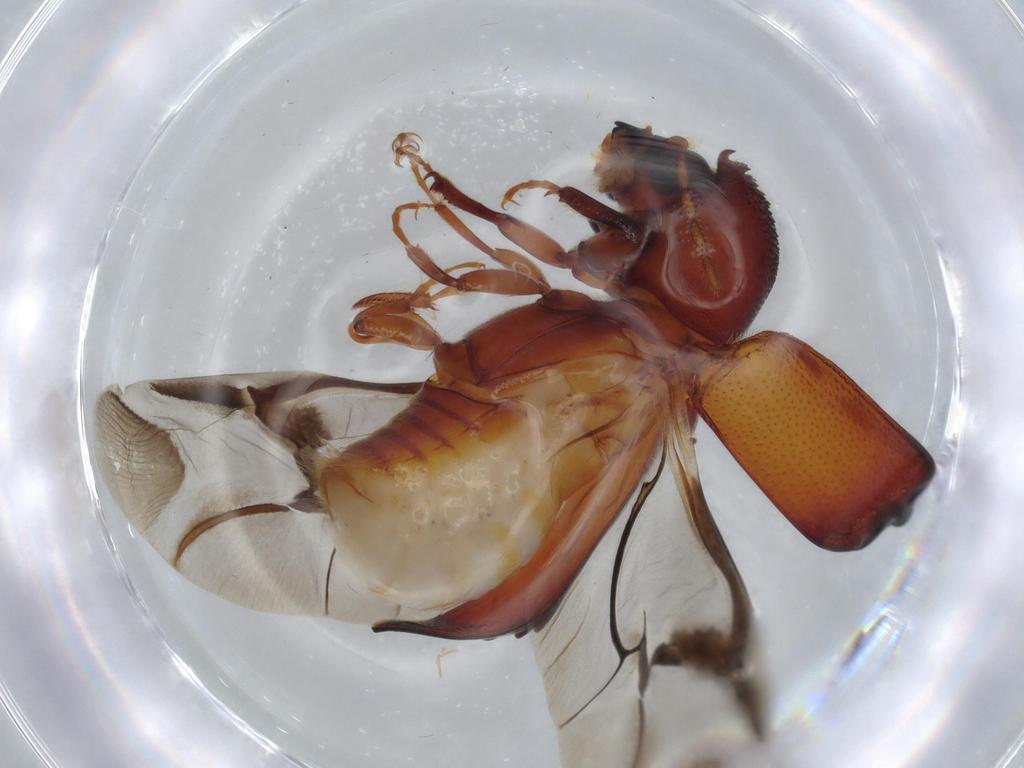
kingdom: Animalia
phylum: Arthropoda
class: Insecta
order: Coleoptera
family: Bostrichidae
